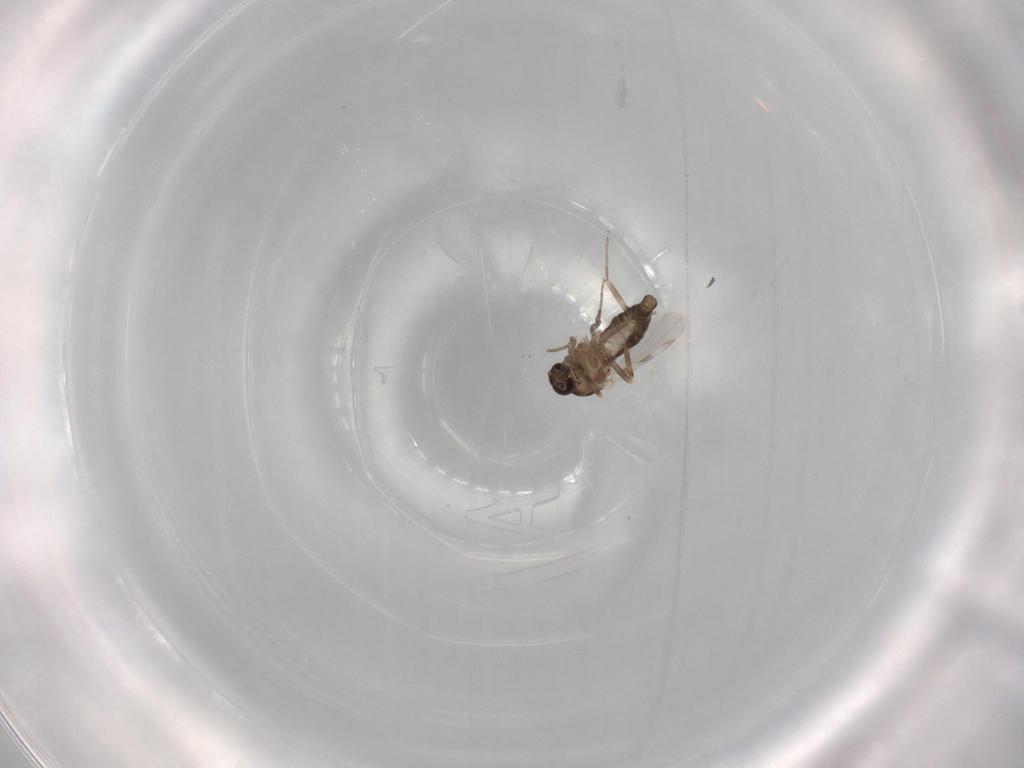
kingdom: Animalia
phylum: Arthropoda
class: Insecta
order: Diptera
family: Ceratopogonidae
